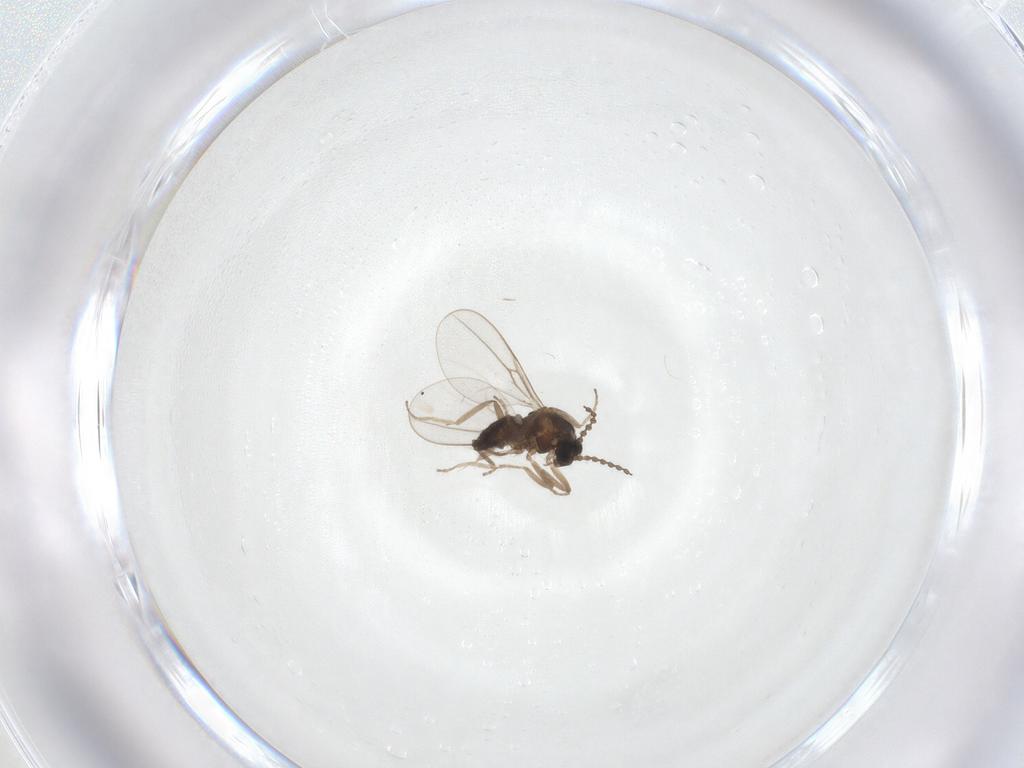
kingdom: Animalia
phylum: Arthropoda
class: Insecta
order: Diptera
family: Cecidomyiidae
